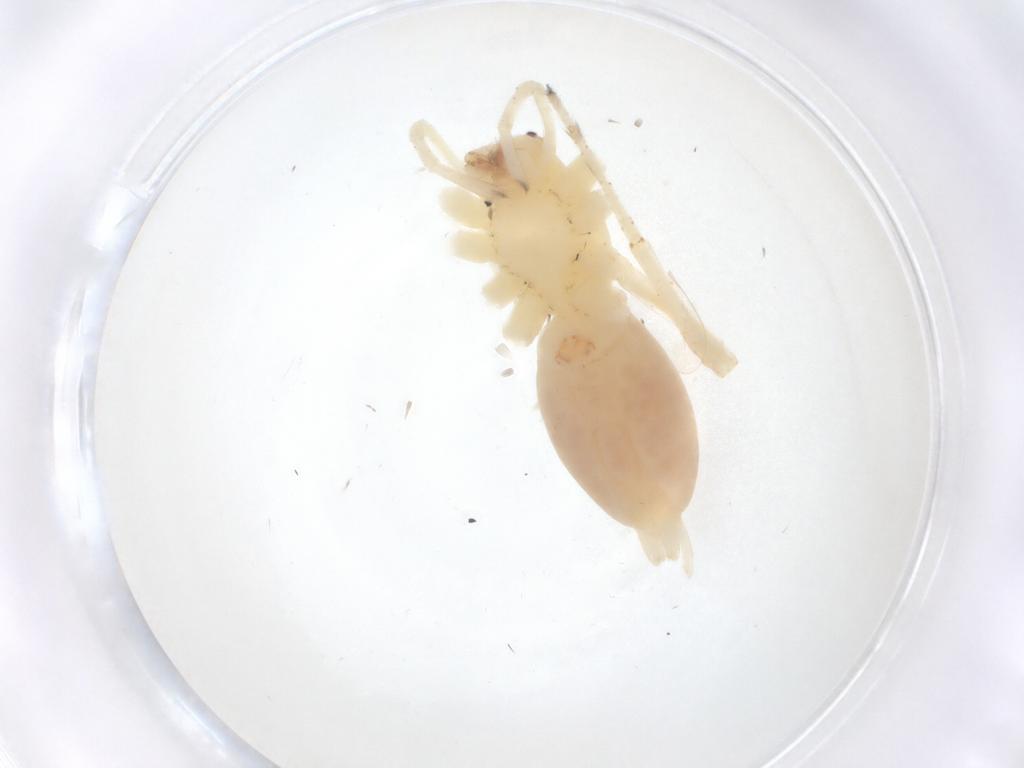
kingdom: Animalia
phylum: Arthropoda
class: Arachnida
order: Araneae
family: Anyphaenidae
